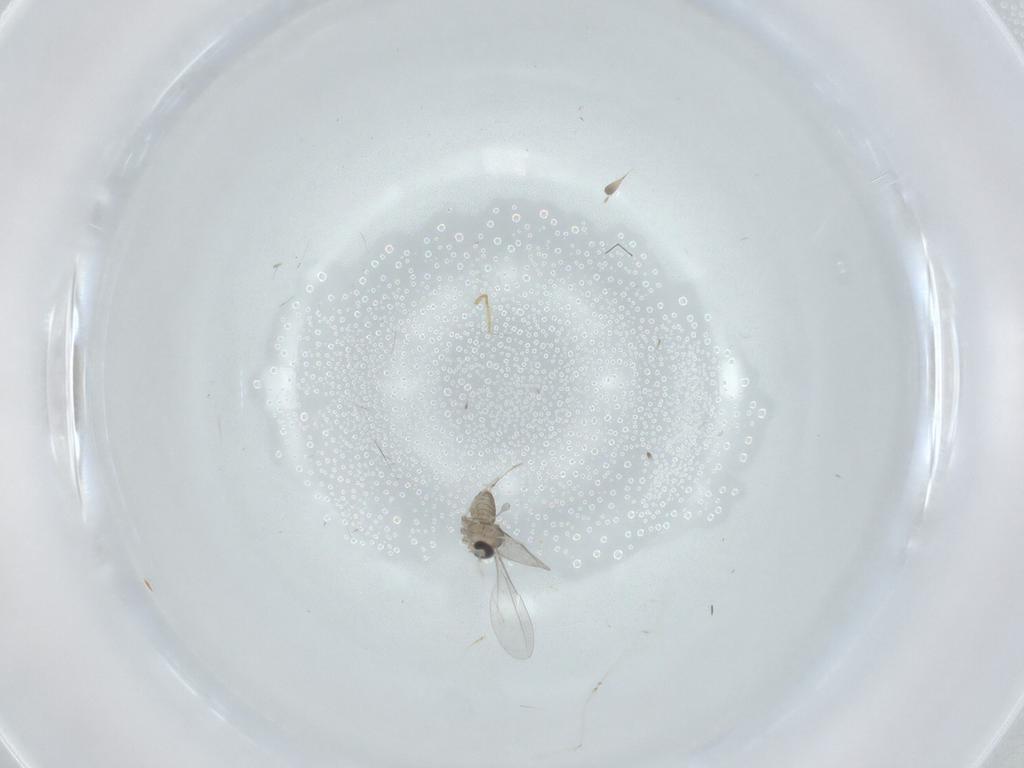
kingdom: Animalia
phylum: Arthropoda
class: Insecta
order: Diptera
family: Cecidomyiidae
